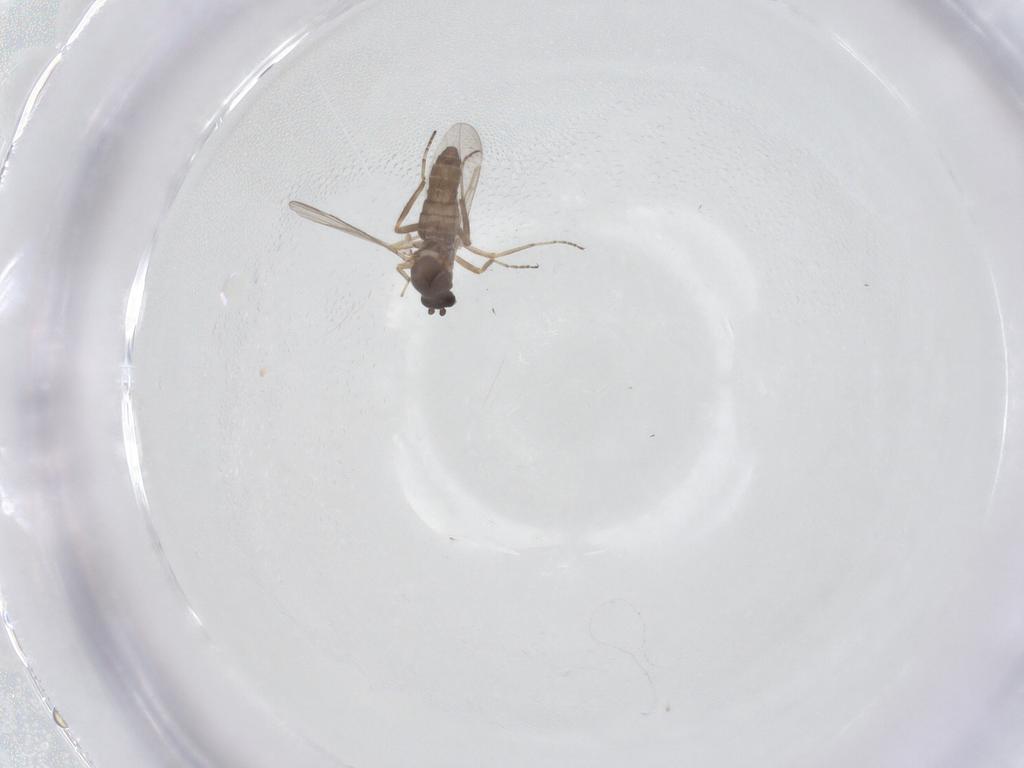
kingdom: Animalia
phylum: Arthropoda
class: Insecta
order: Diptera
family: Ceratopogonidae
